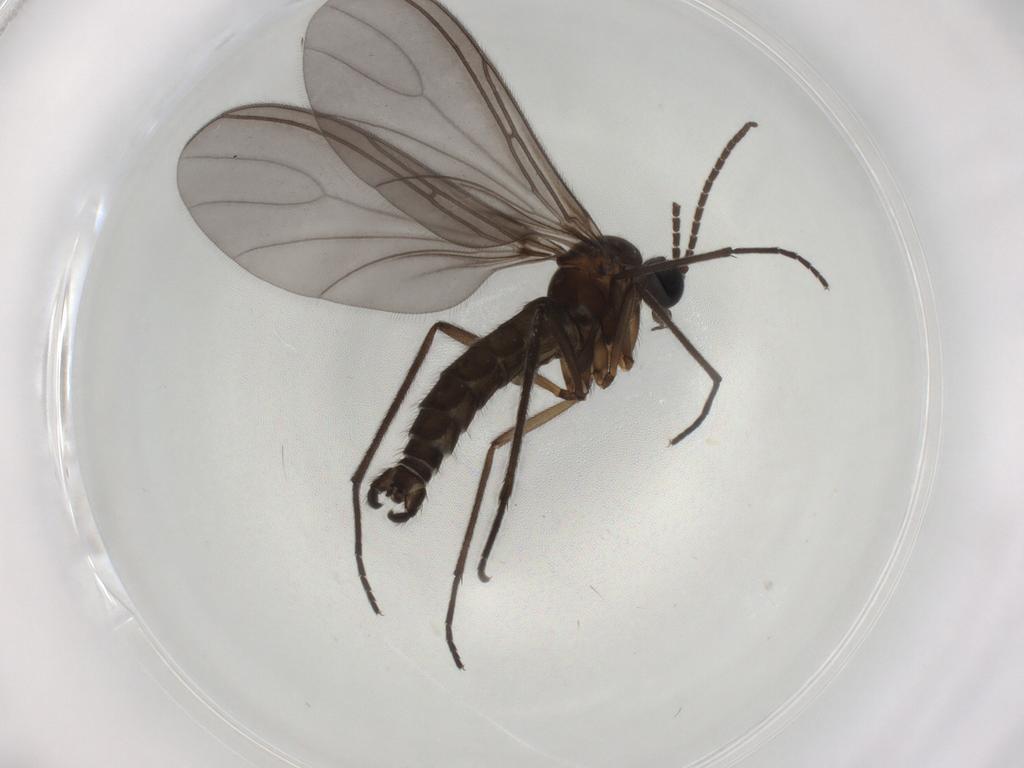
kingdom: Animalia
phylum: Arthropoda
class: Insecta
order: Diptera
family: Sciaridae
